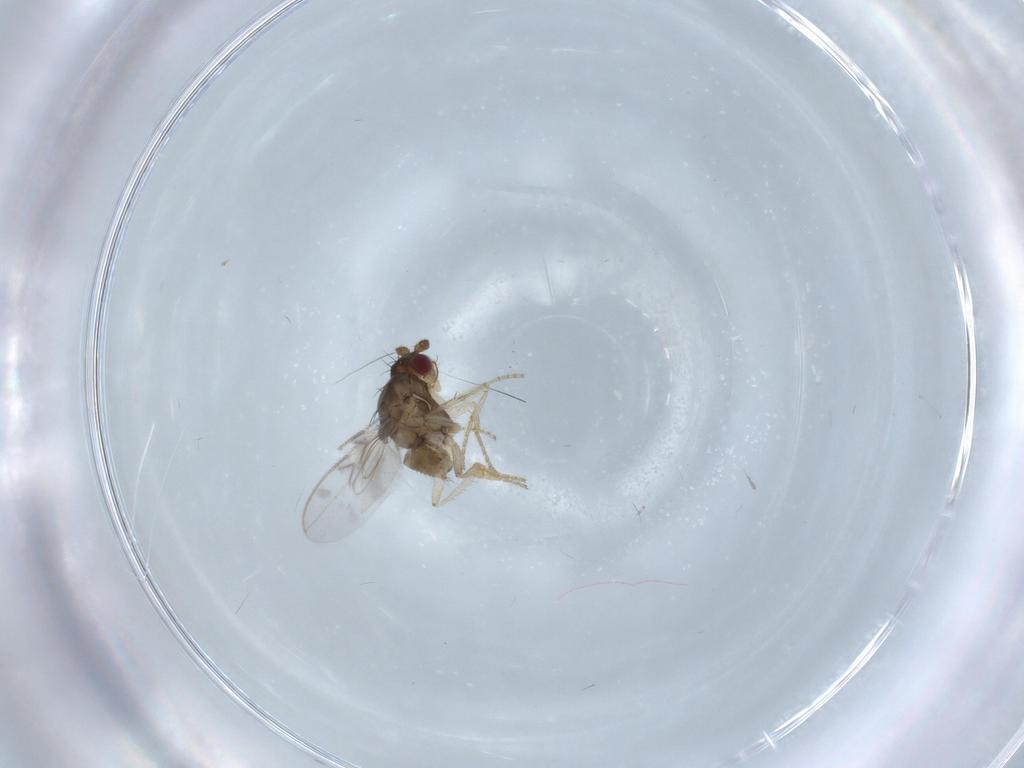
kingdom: Animalia
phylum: Arthropoda
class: Insecta
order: Diptera
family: Sphaeroceridae
